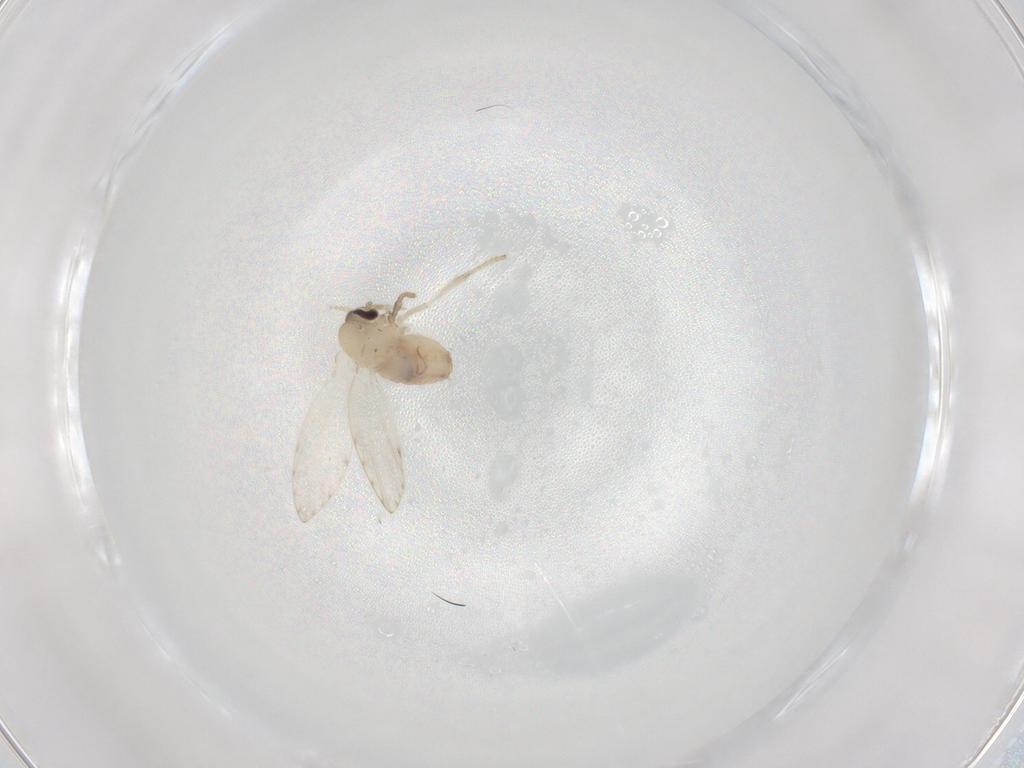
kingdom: Animalia
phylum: Arthropoda
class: Insecta
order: Diptera
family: Psychodidae
